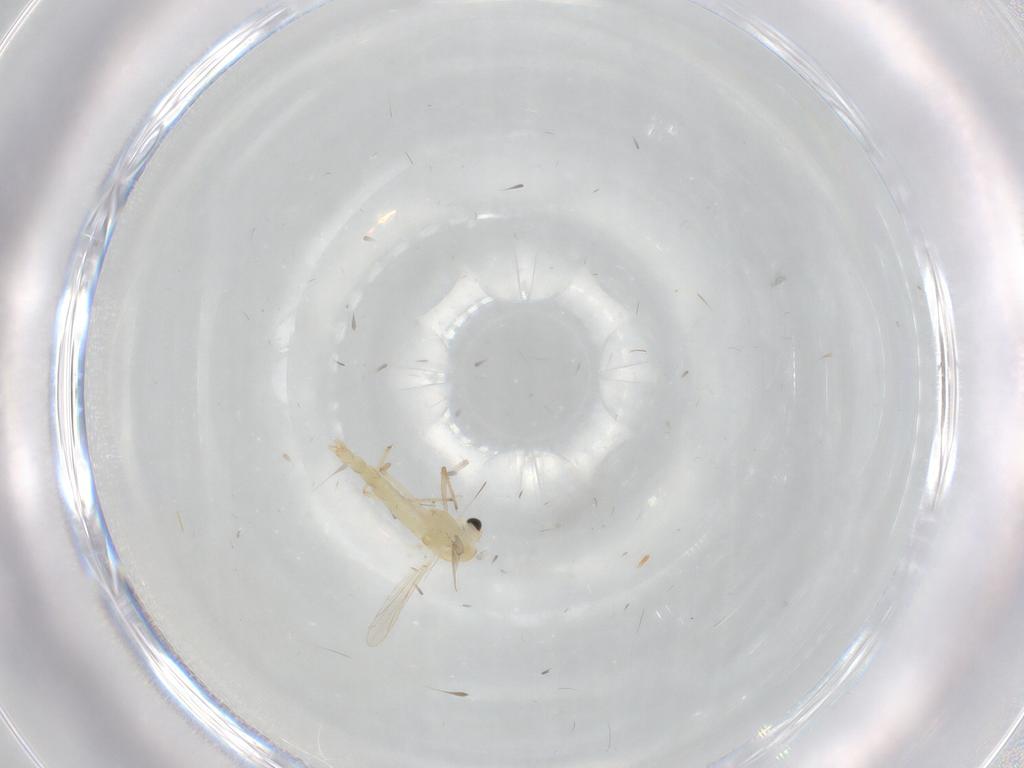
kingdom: Animalia
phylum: Arthropoda
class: Insecta
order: Diptera
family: Chironomidae
